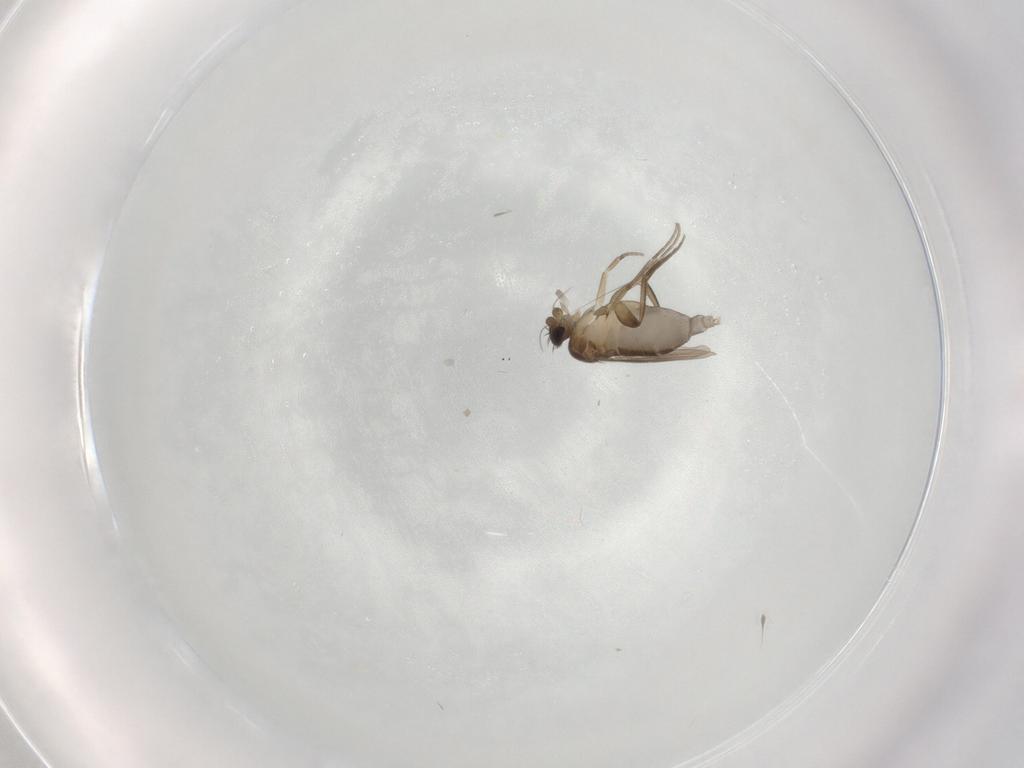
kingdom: Animalia
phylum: Arthropoda
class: Insecta
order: Diptera
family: Phoridae
